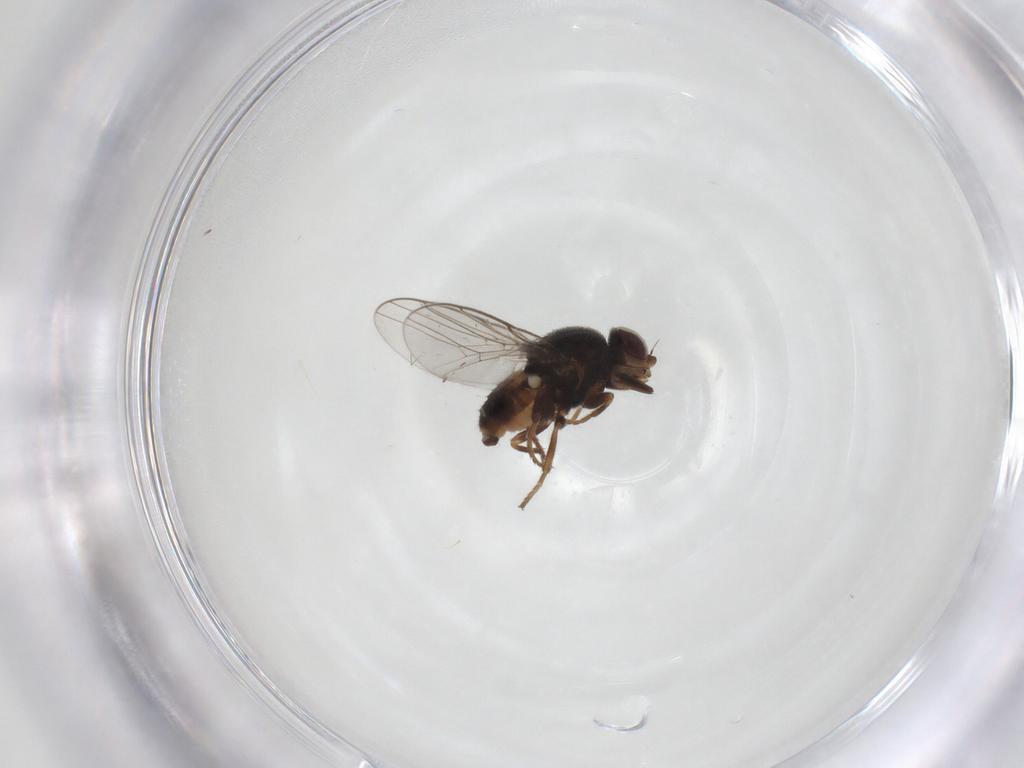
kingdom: Animalia
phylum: Arthropoda
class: Insecta
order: Diptera
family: Chloropidae
